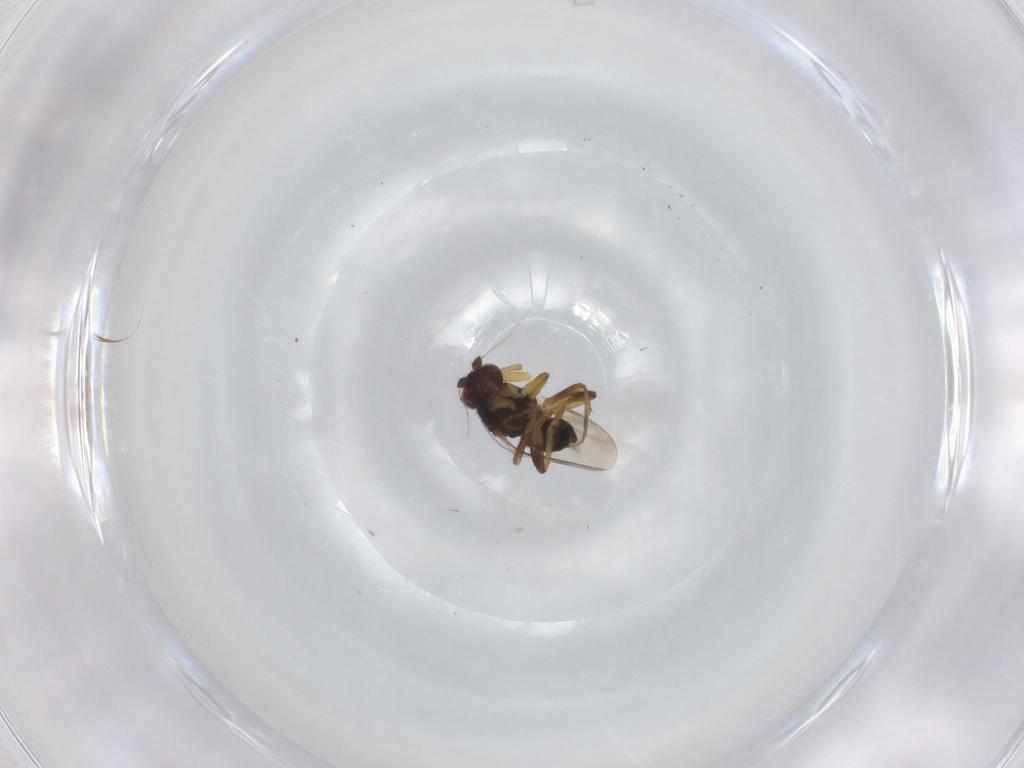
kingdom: Animalia
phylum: Arthropoda
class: Insecta
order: Diptera
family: Sphaeroceridae
